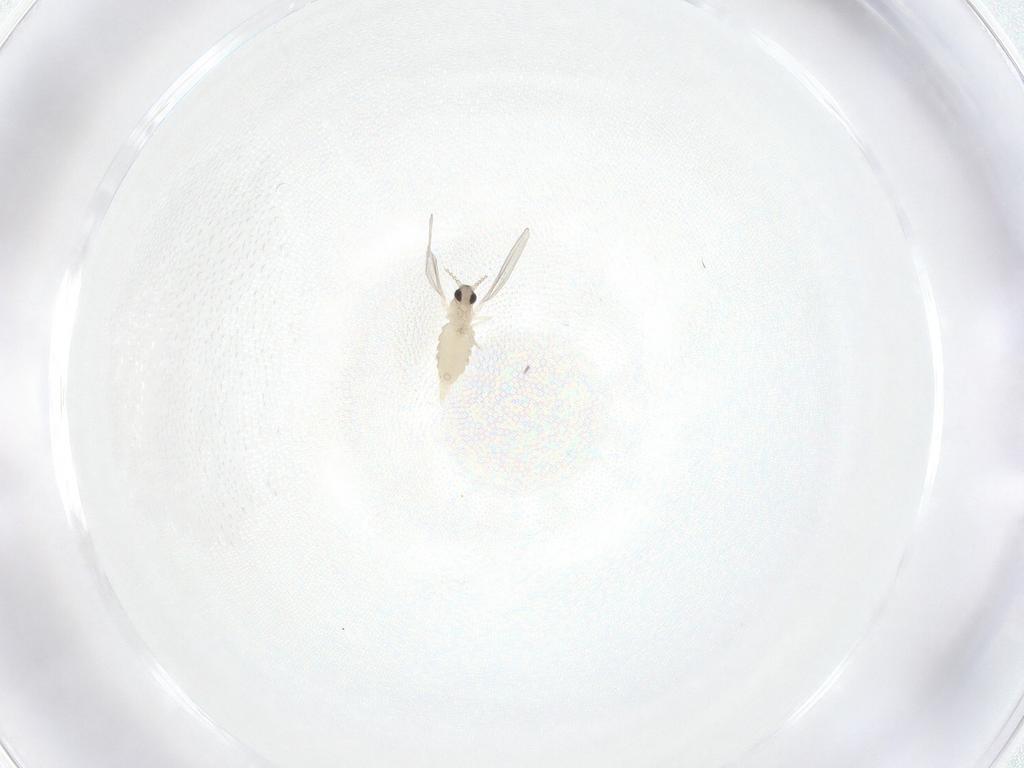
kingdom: Animalia
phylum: Arthropoda
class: Insecta
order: Diptera
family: Cecidomyiidae
